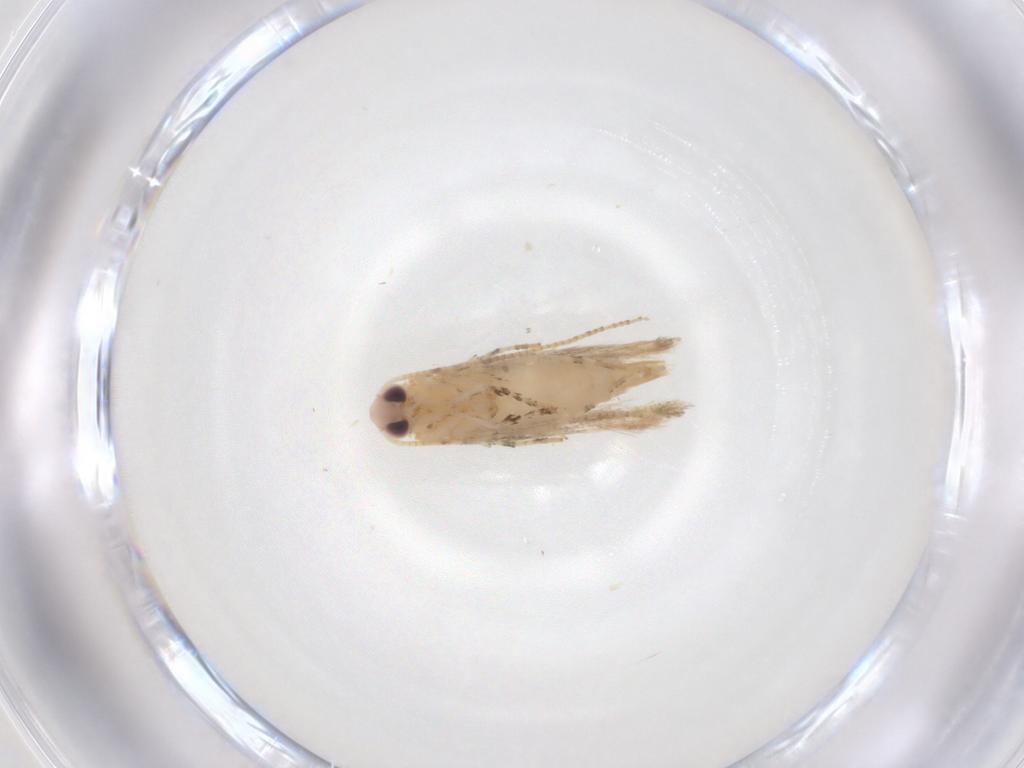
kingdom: Animalia
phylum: Arthropoda
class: Insecta
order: Lepidoptera
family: Gracillariidae
